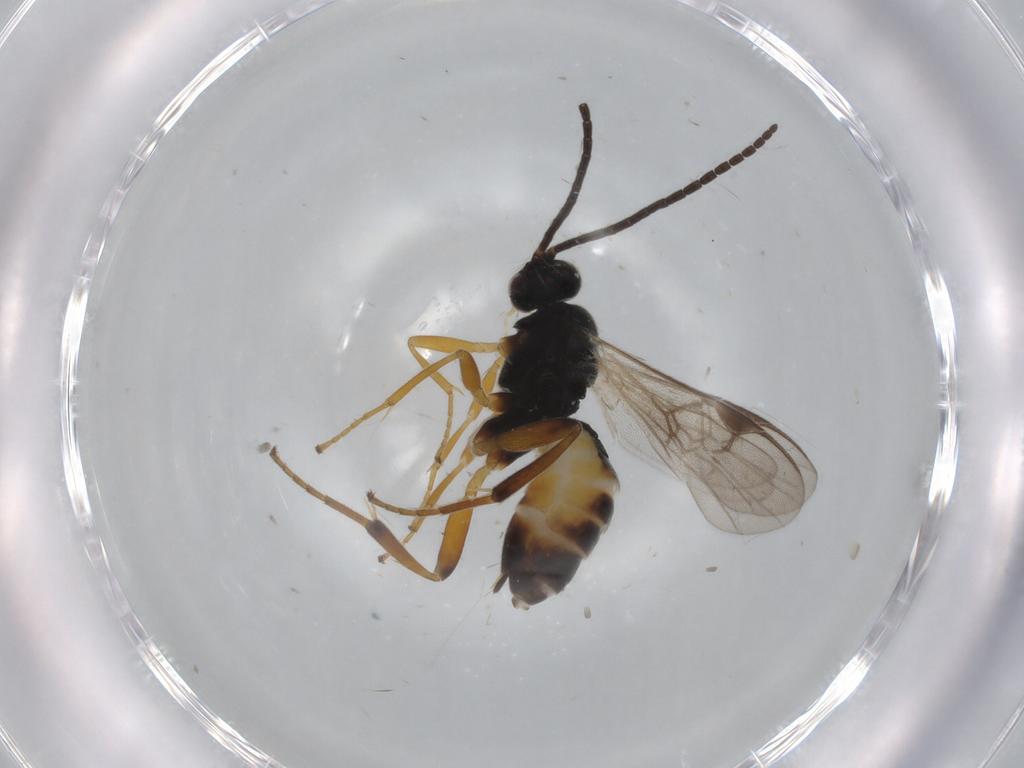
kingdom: Animalia
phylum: Arthropoda
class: Insecta
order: Hymenoptera
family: Braconidae
